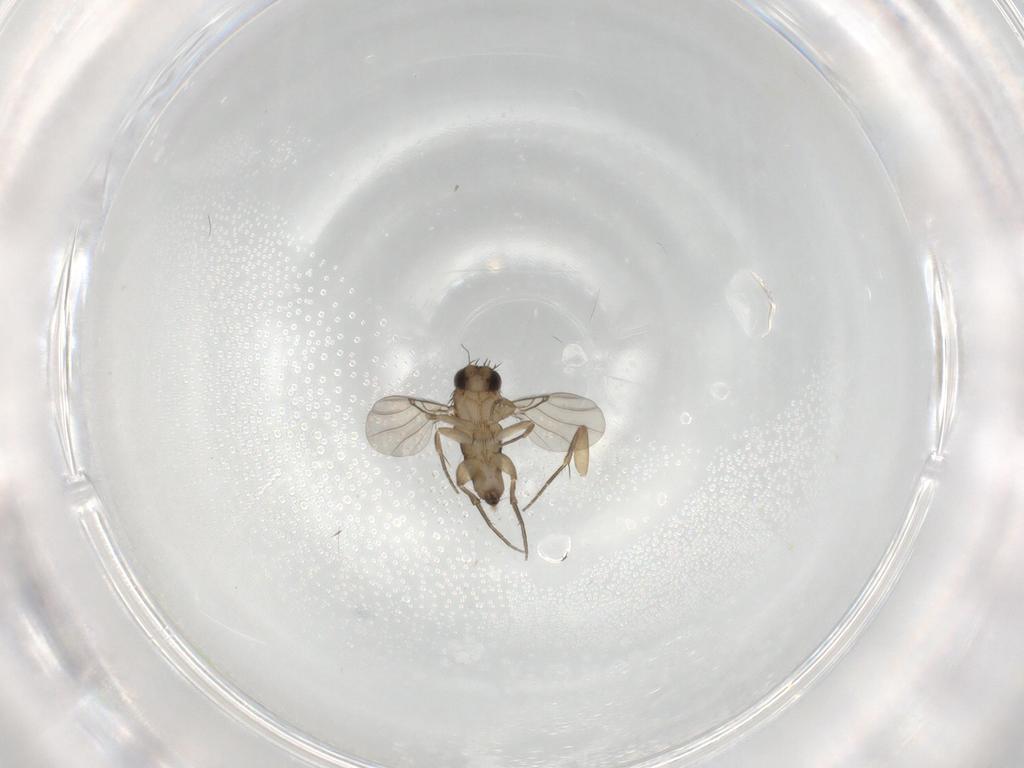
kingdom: Animalia
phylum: Arthropoda
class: Insecta
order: Diptera
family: Phoridae
